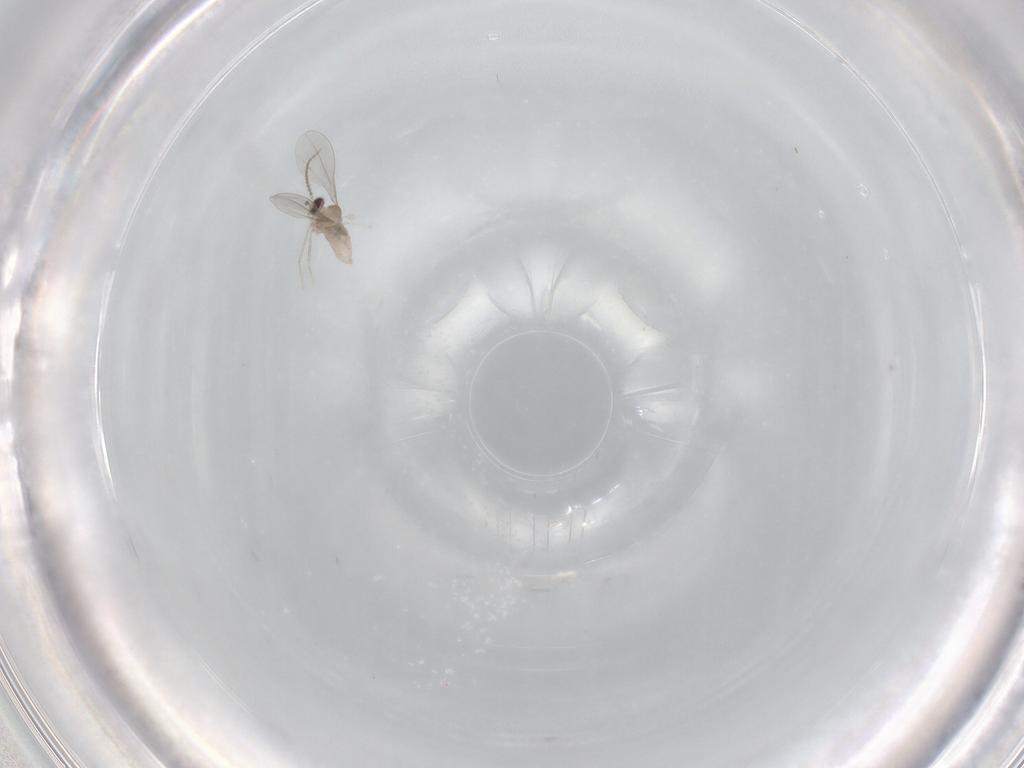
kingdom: Animalia
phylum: Arthropoda
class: Insecta
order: Diptera
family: Cecidomyiidae
